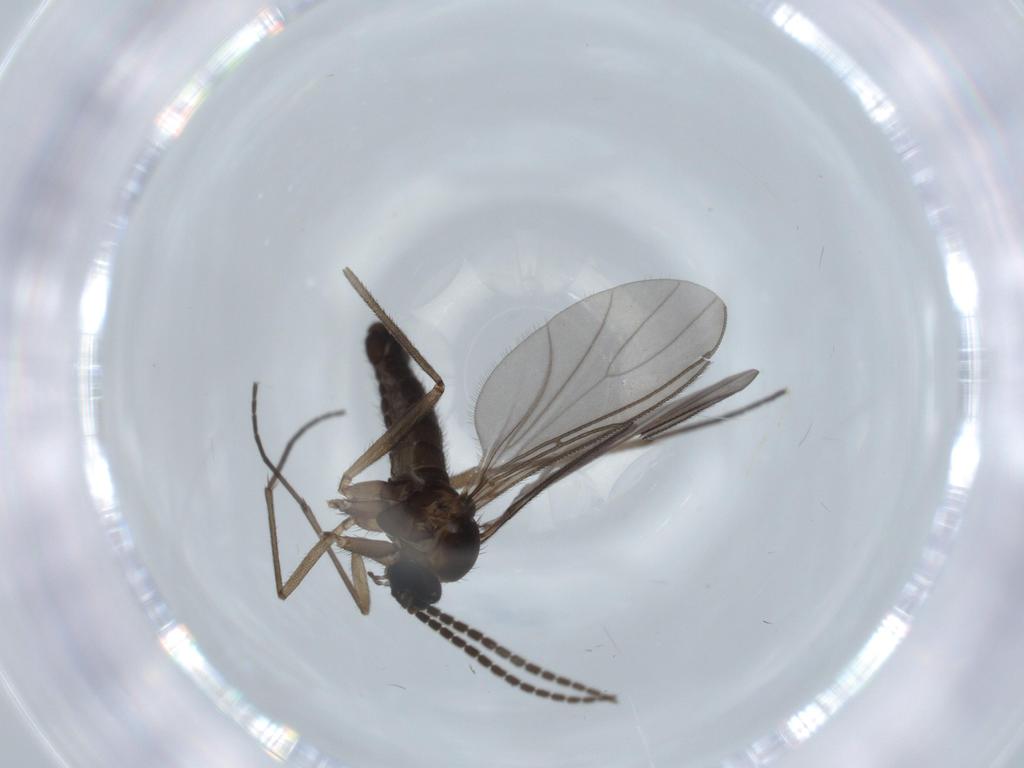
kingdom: Animalia
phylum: Arthropoda
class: Insecta
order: Diptera
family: Sciaridae
